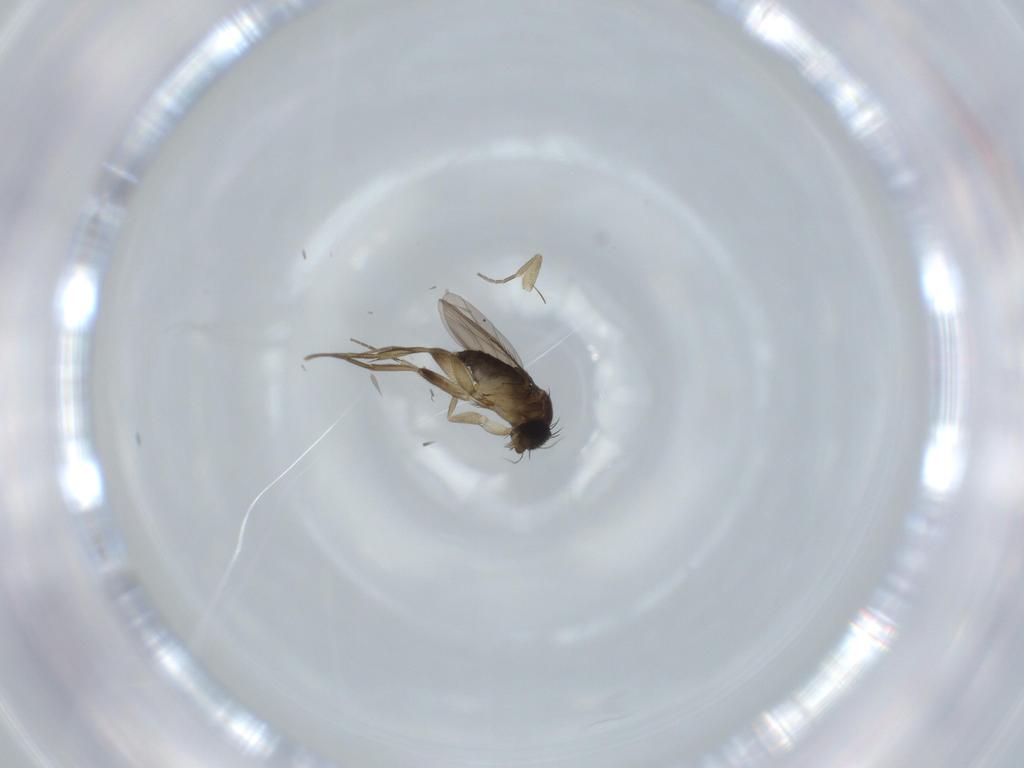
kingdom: Animalia
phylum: Arthropoda
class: Insecta
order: Diptera
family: Phoridae
